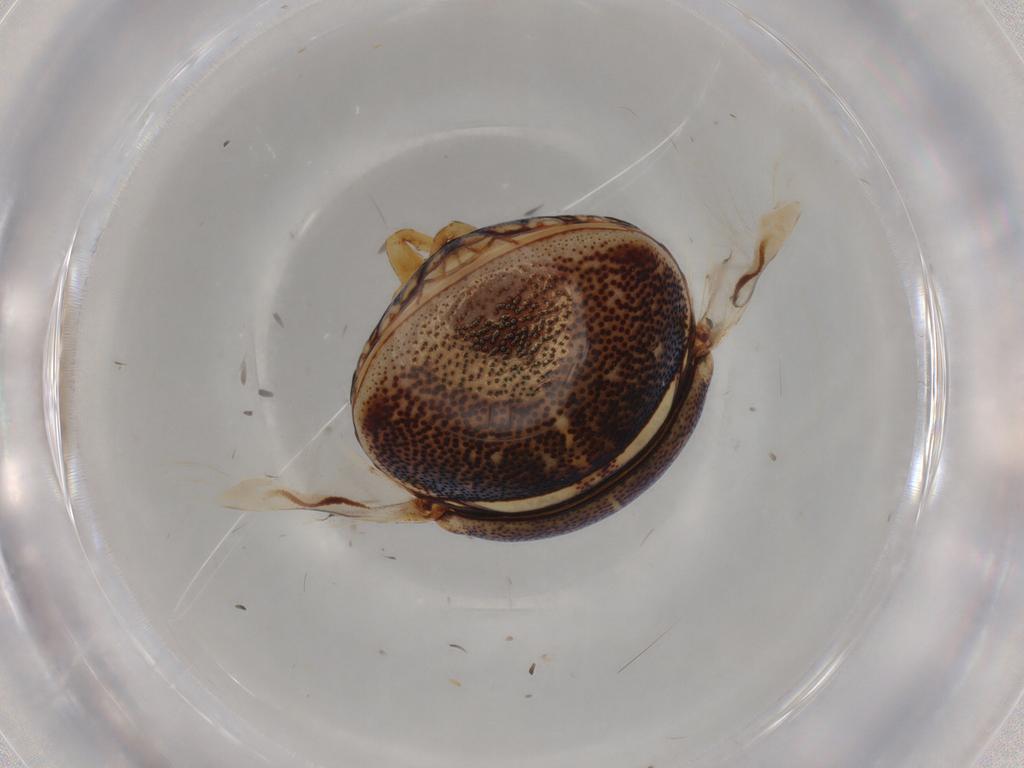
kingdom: Animalia
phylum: Arthropoda
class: Insecta
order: Hemiptera
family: Scutelleridae
